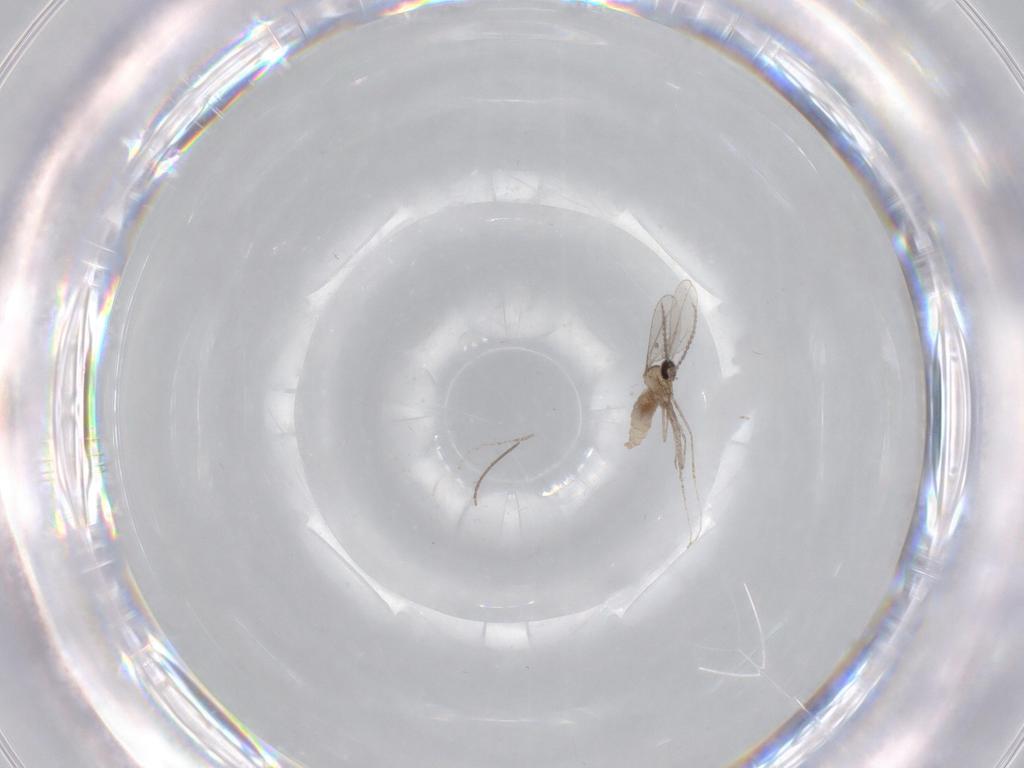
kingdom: Animalia
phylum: Arthropoda
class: Insecta
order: Diptera
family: Chironomidae
